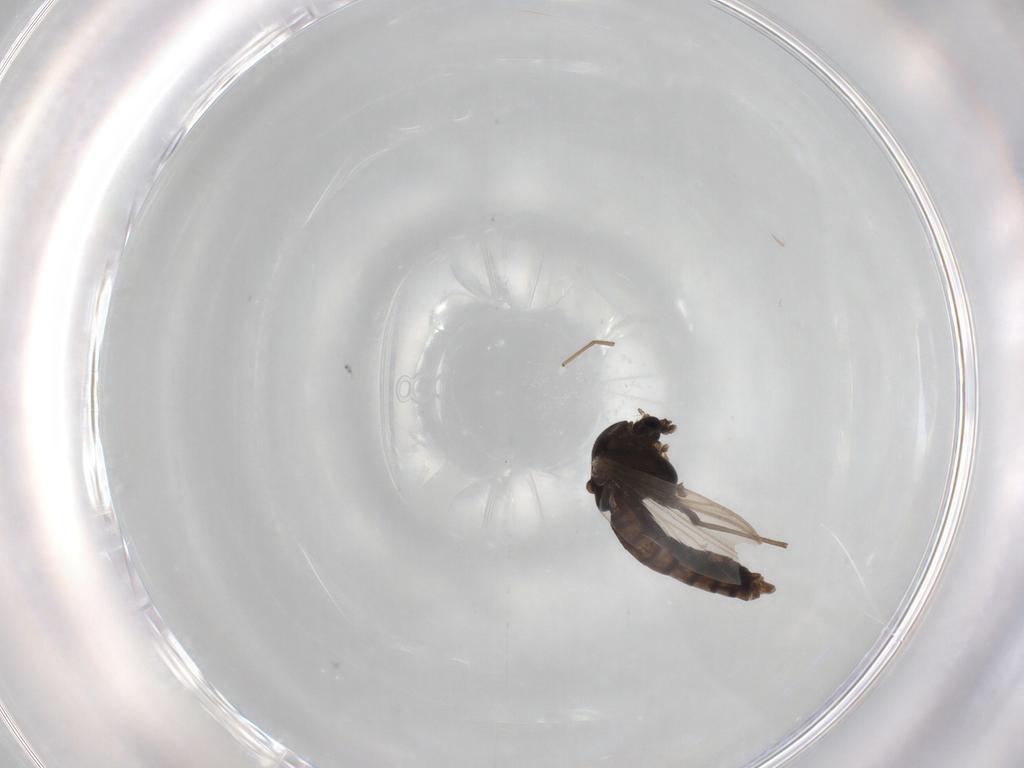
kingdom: Animalia
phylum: Arthropoda
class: Insecta
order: Diptera
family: Chironomidae
